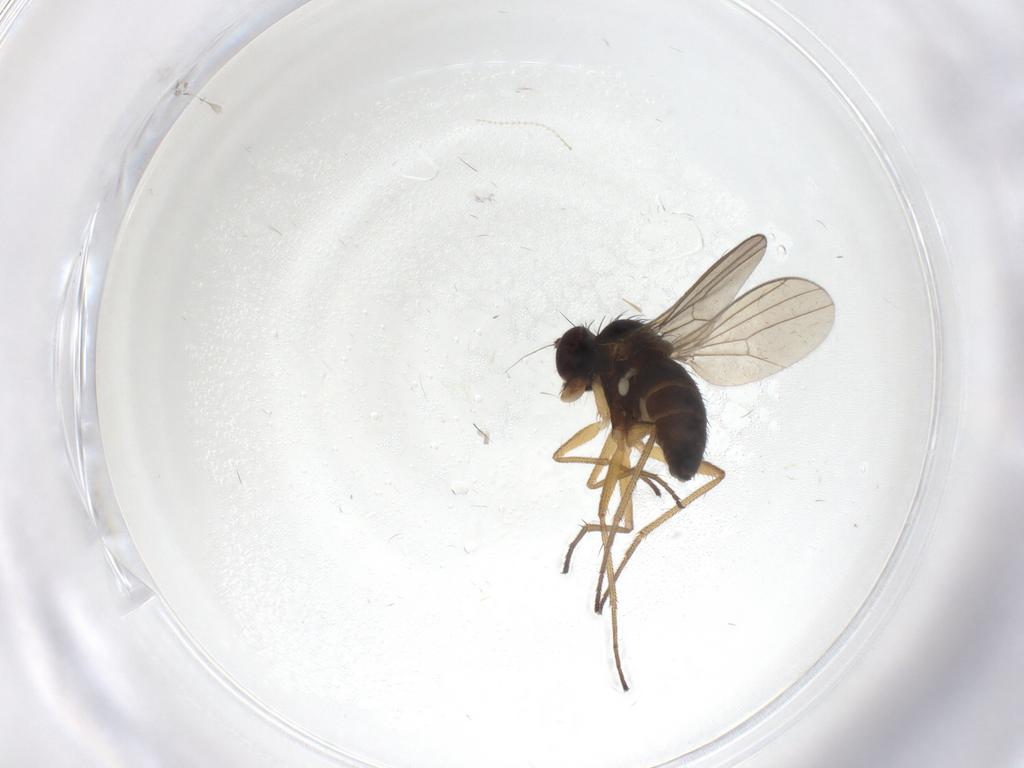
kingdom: Animalia
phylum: Arthropoda
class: Insecta
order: Diptera
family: Dolichopodidae
